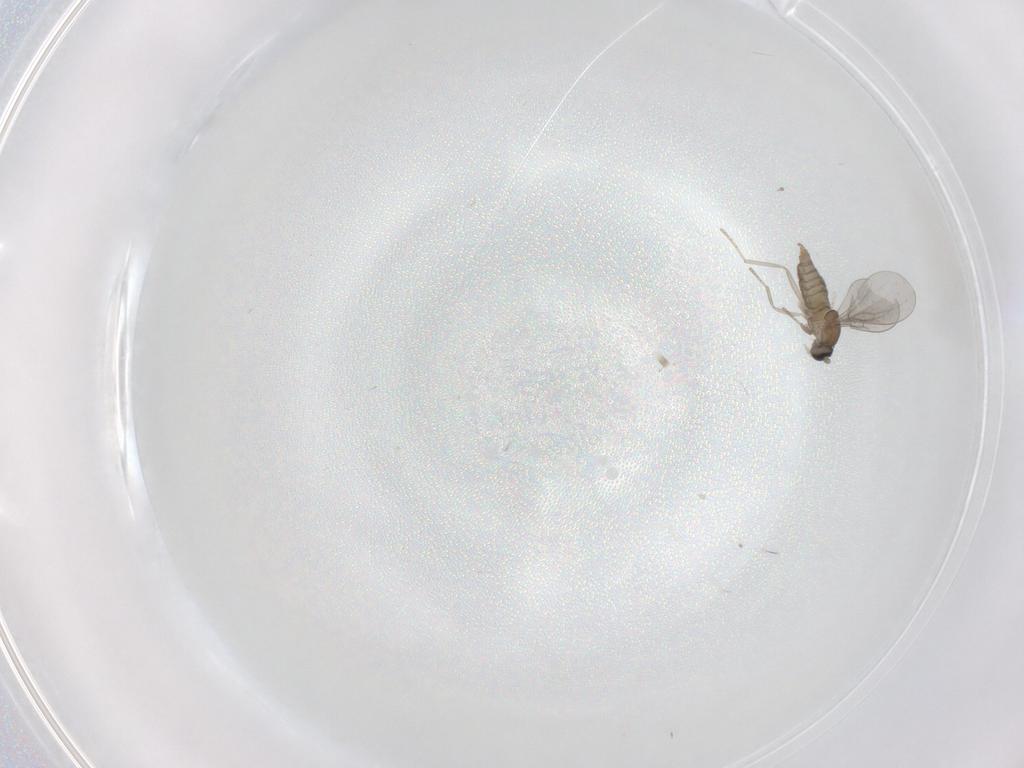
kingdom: Animalia
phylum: Arthropoda
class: Insecta
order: Diptera
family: Cecidomyiidae
